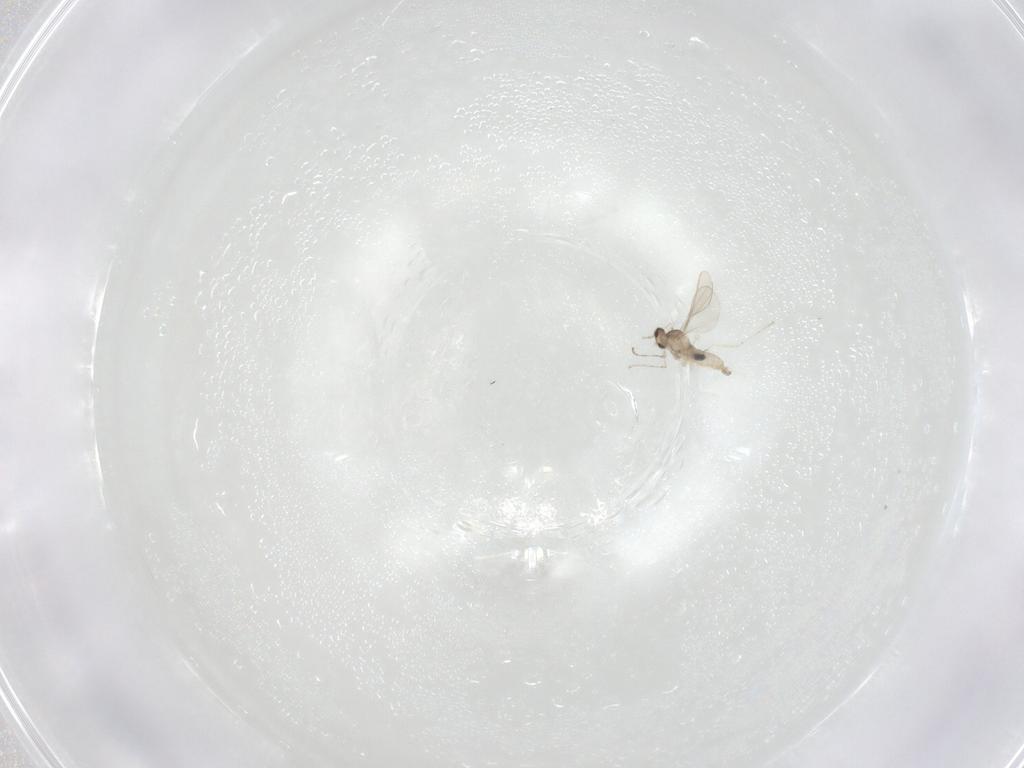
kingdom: Animalia
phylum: Arthropoda
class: Insecta
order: Diptera
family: Cecidomyiidae
